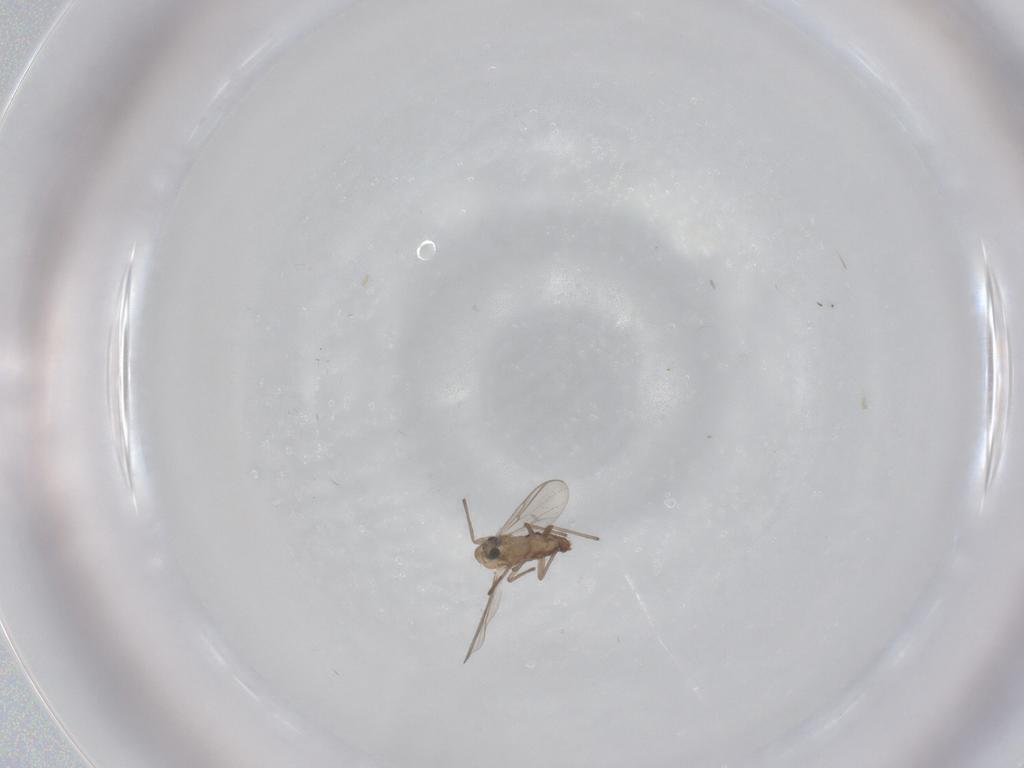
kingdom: Animalia
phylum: Arthropoda
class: Insecta
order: Diptera
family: Chironomidae
